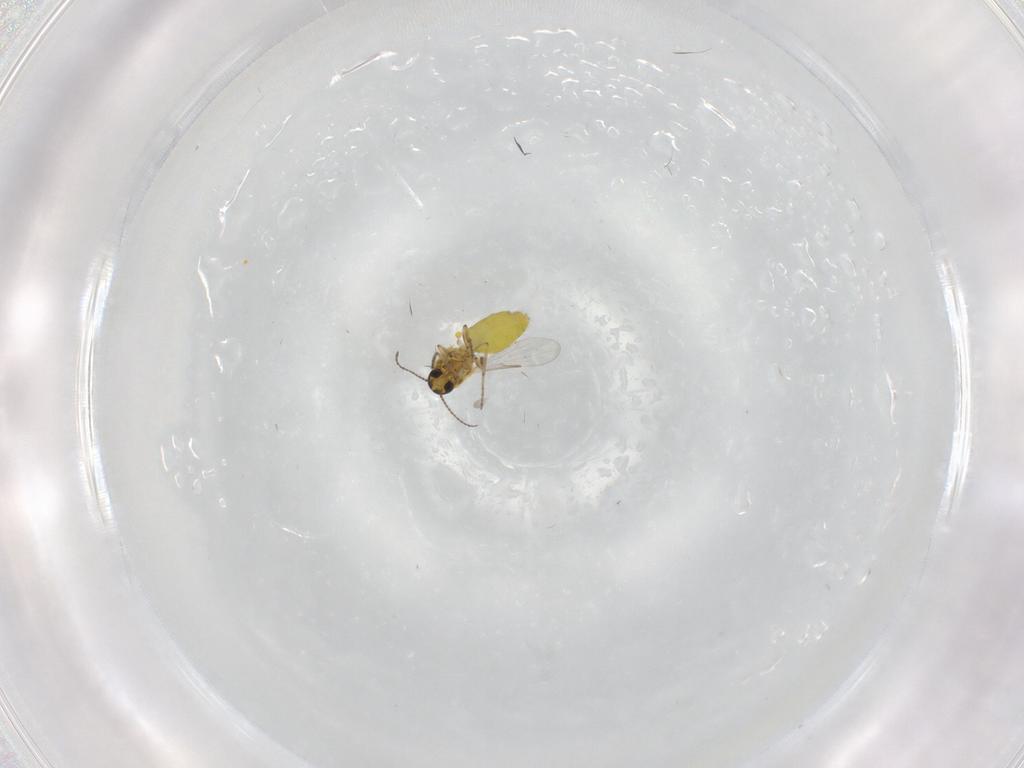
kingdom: Animalia
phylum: Arthropoda
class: Insecta
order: Diptera
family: Ceratopogonidae
